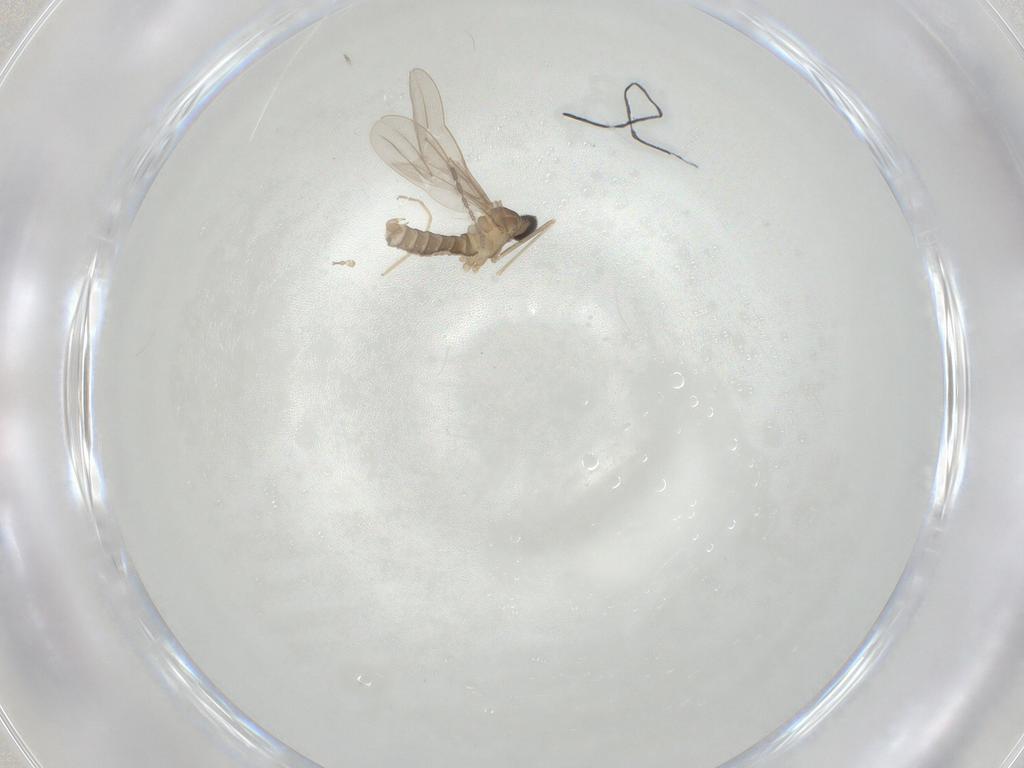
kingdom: Animalia
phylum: Arthropoda
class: Insecta
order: Diptera
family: Cecidomyiidae
